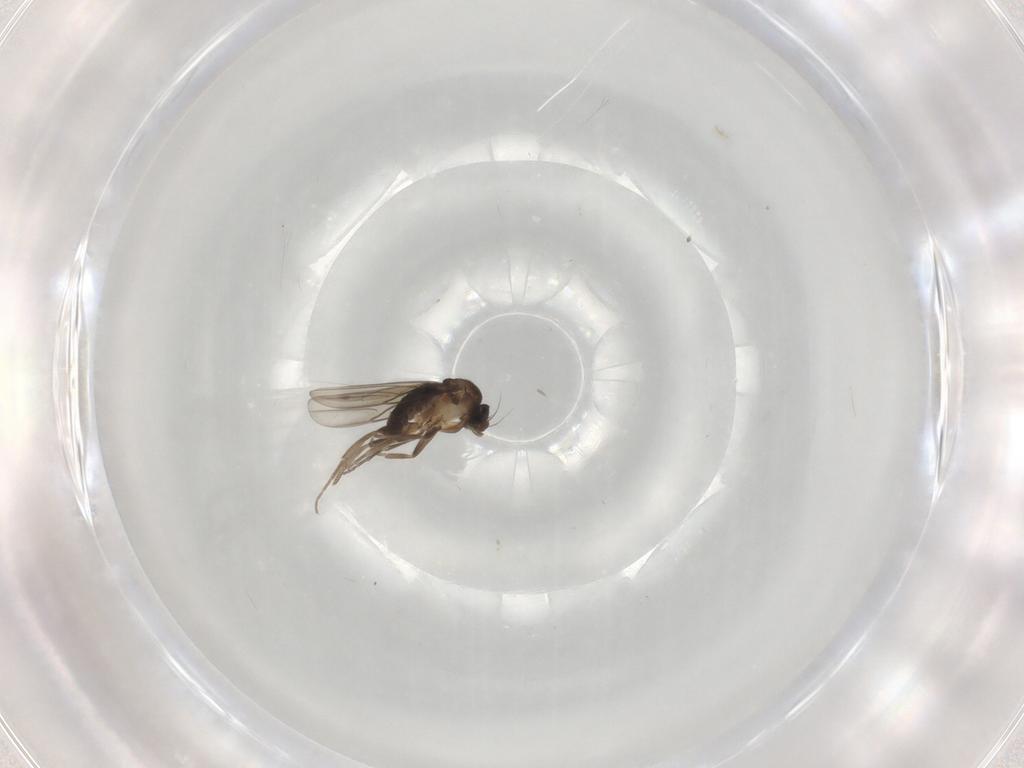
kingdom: Animalia
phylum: Arthropoda
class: Insecta
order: Diptera
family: Phoridae
